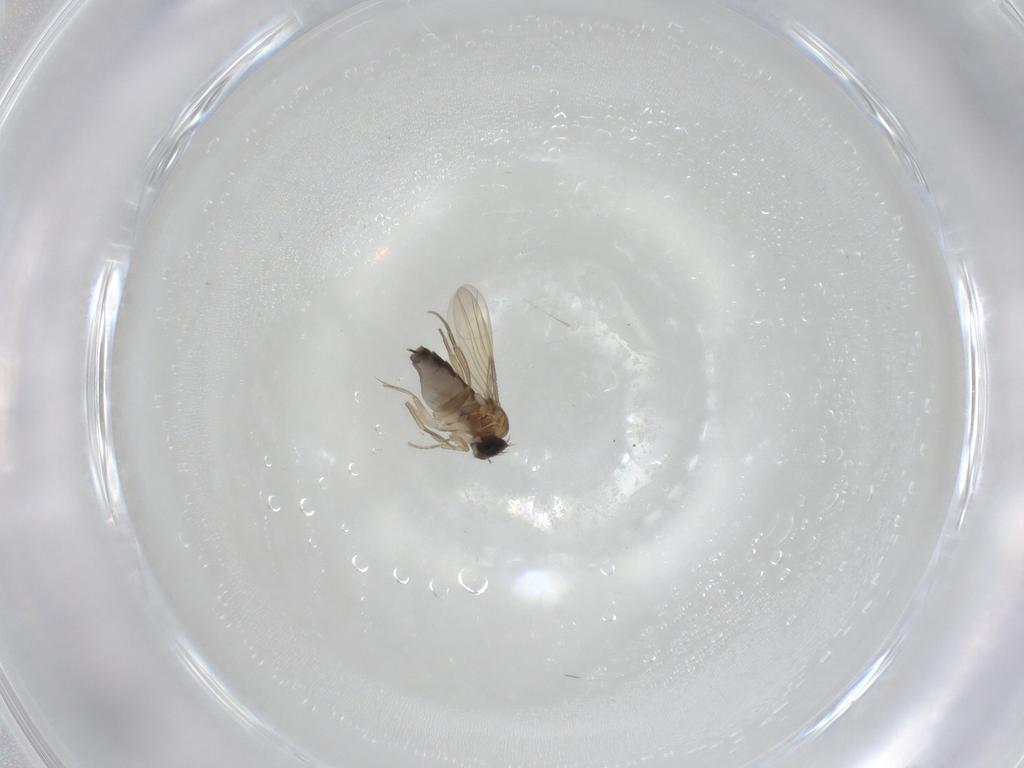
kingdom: Animalia
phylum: Arthropoda
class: Insecta
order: Diptera
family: Phoridae
